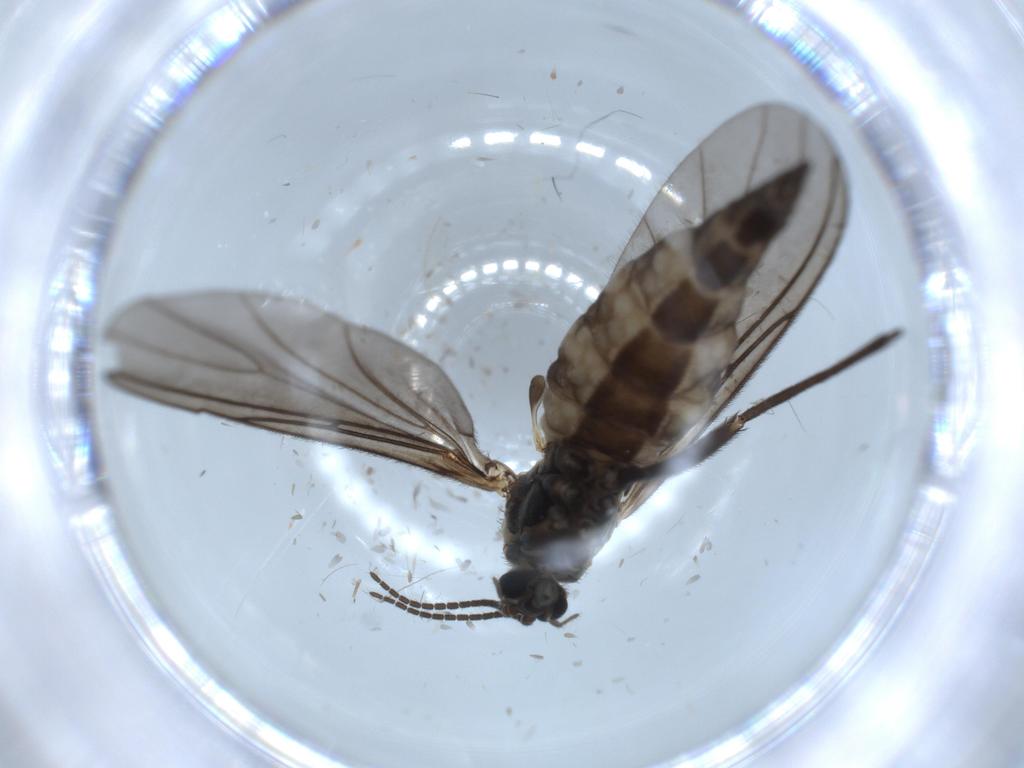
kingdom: Animalia
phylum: Arthropoda
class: Insecta
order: Diptera
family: Sciaridae
